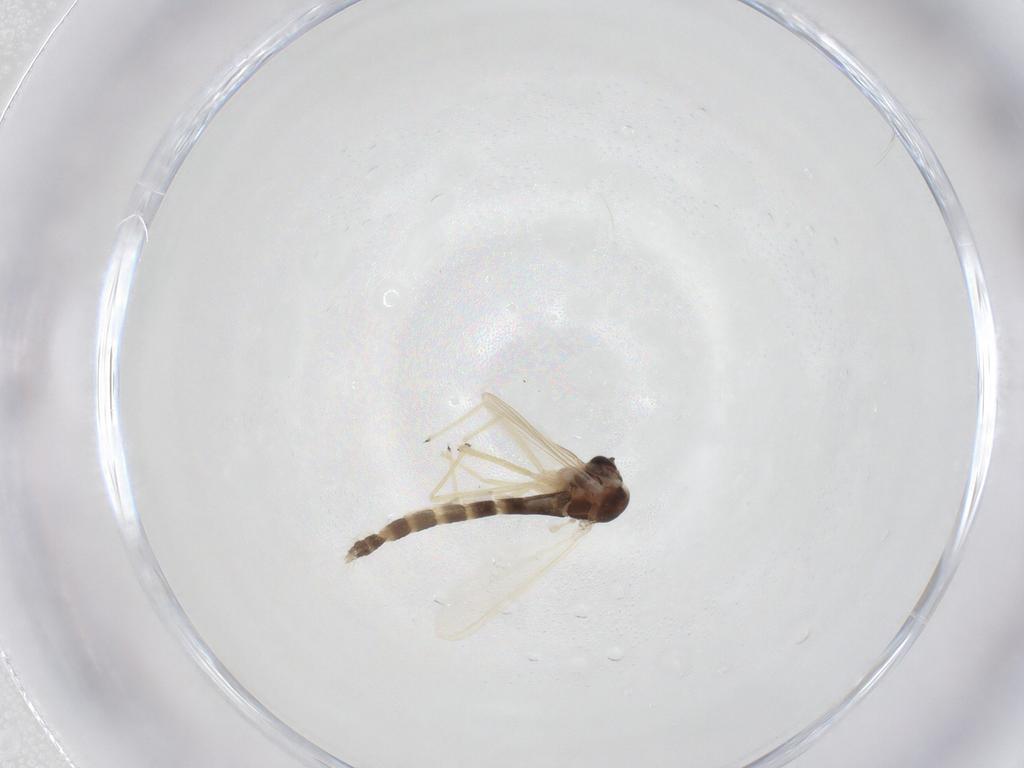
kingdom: Animalia
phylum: Arthropoda
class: Insecta
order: Diptera
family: Chironomidae
